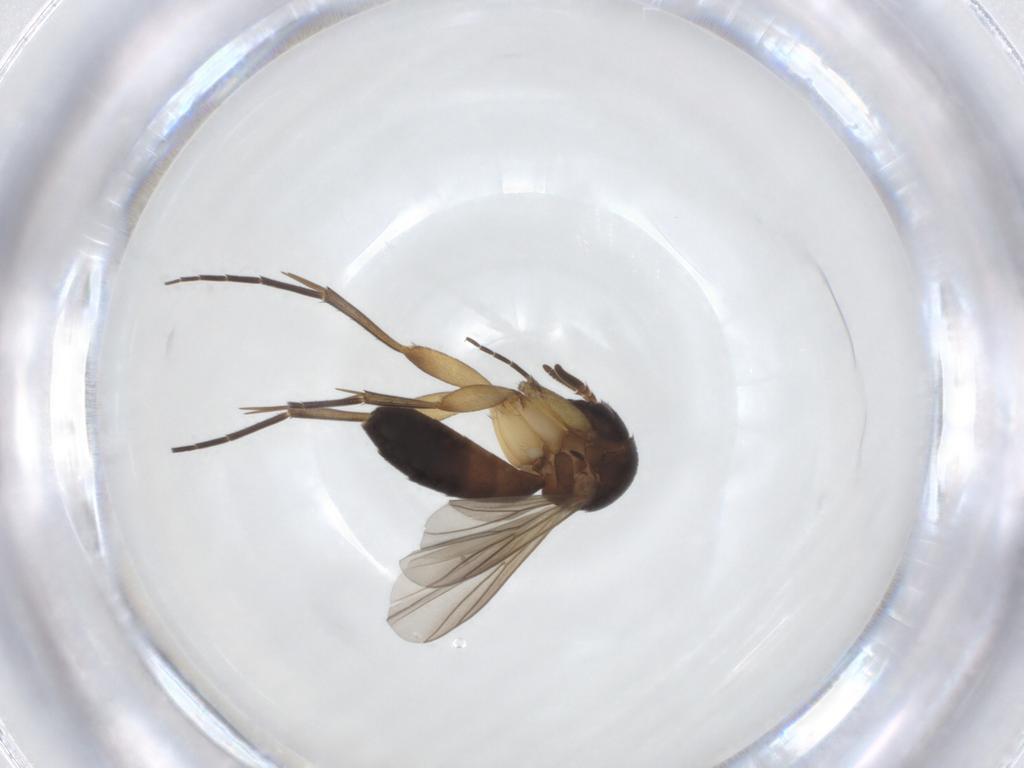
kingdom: Animalia
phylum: Arthropoda
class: Insecta
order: Diptera
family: Mycetophilidae
